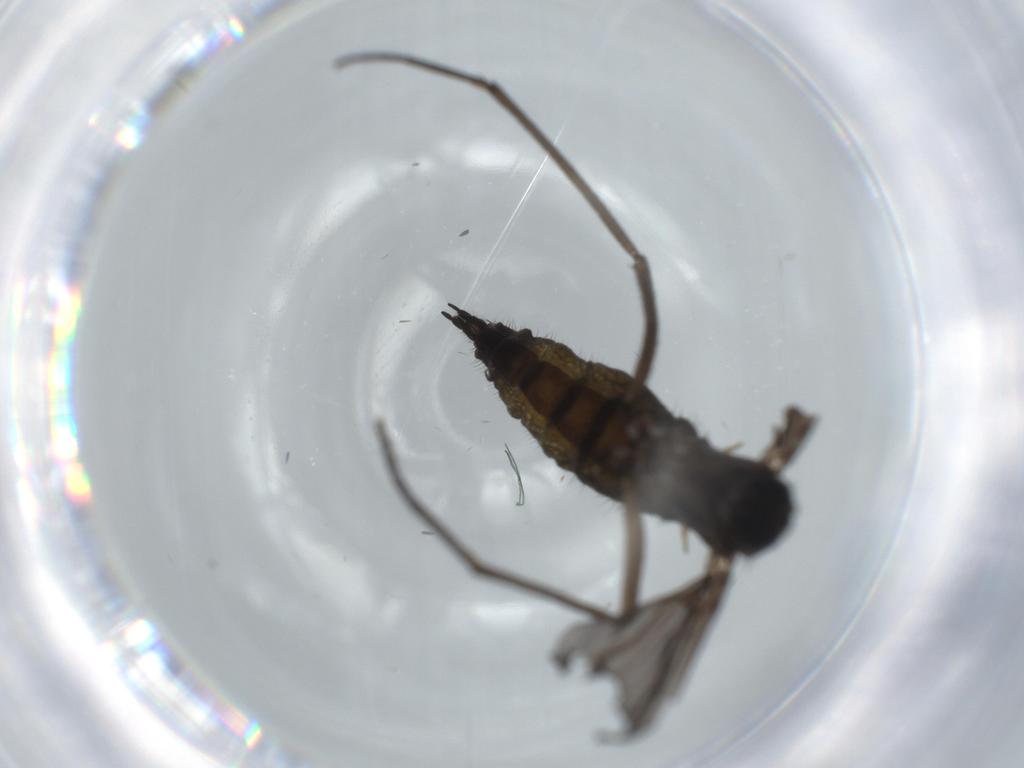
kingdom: Animalia
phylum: Arthropoda
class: Insecta
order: Diptera
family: Sciaridae
